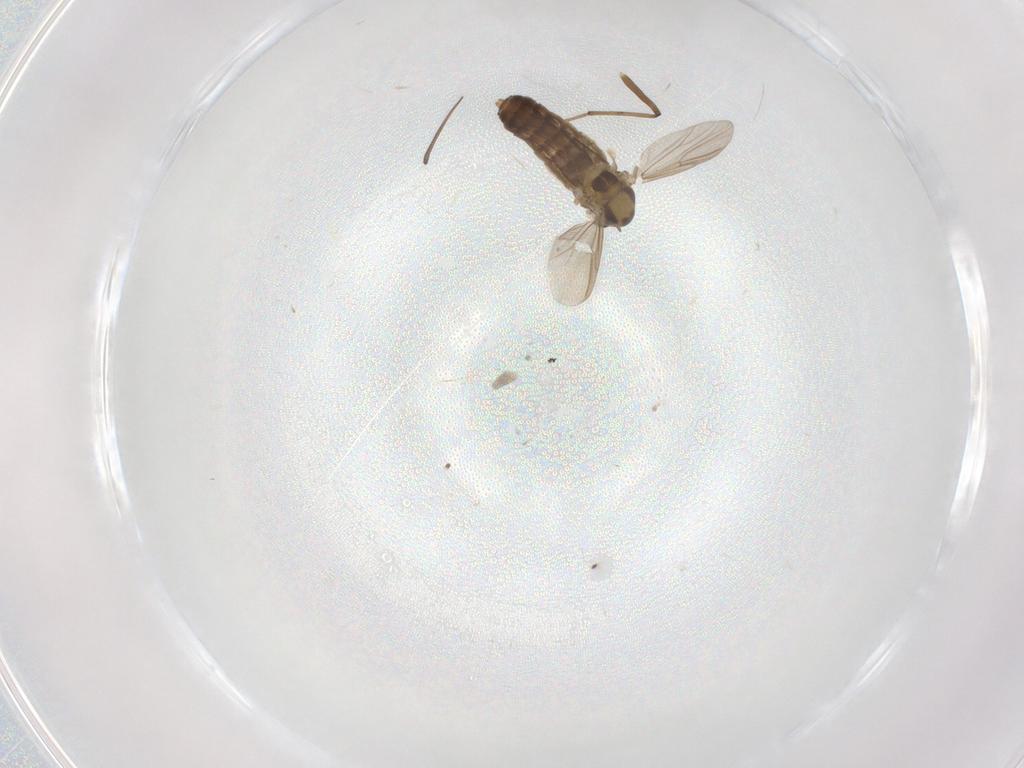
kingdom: Animalia
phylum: Arthropoda
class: Insecta
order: Diptera
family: Chironomidae
